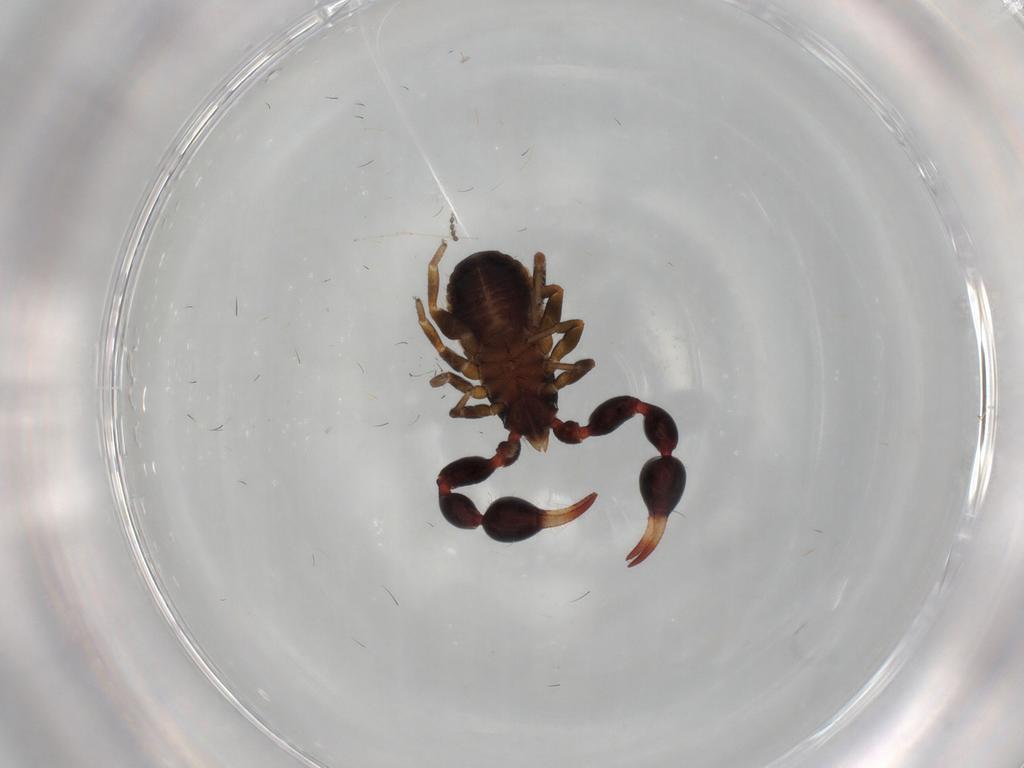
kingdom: Animalia
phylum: Arthropoda
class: Arachnida
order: Pseudoscorpiones
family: Chernetidae
